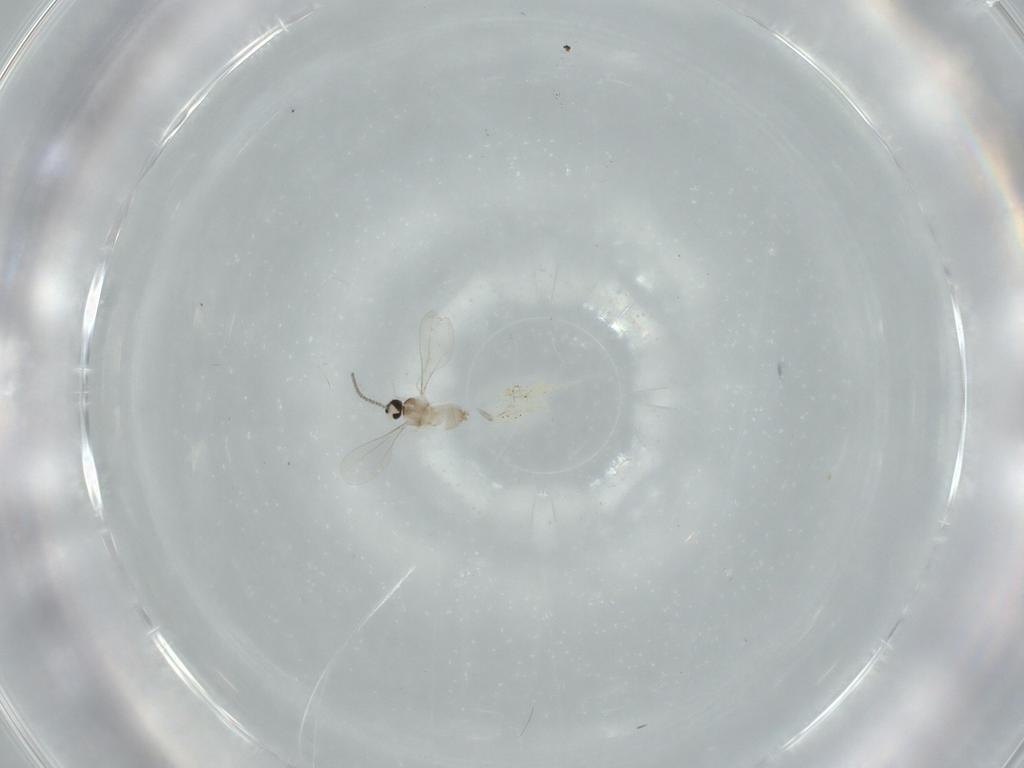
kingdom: Animalia
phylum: Arthropoda
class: Insecta
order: Diptera
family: Cecidomyiidae
